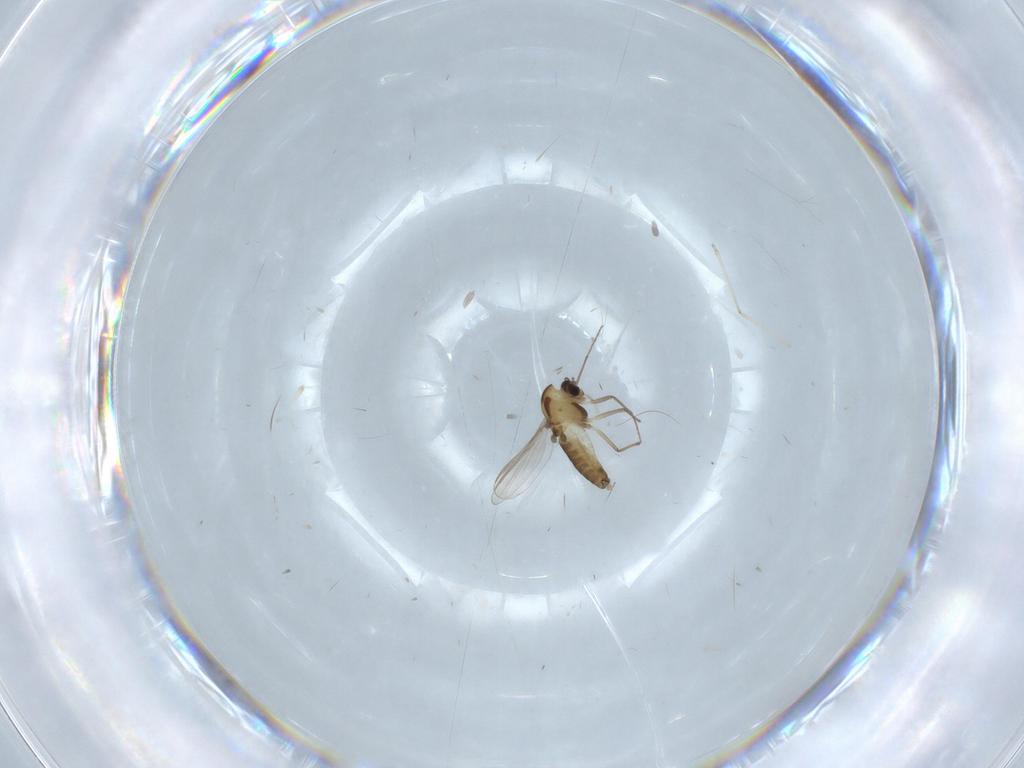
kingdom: Animalia
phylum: Arthropoda
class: Insecta
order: Diptera
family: Chironomidae
